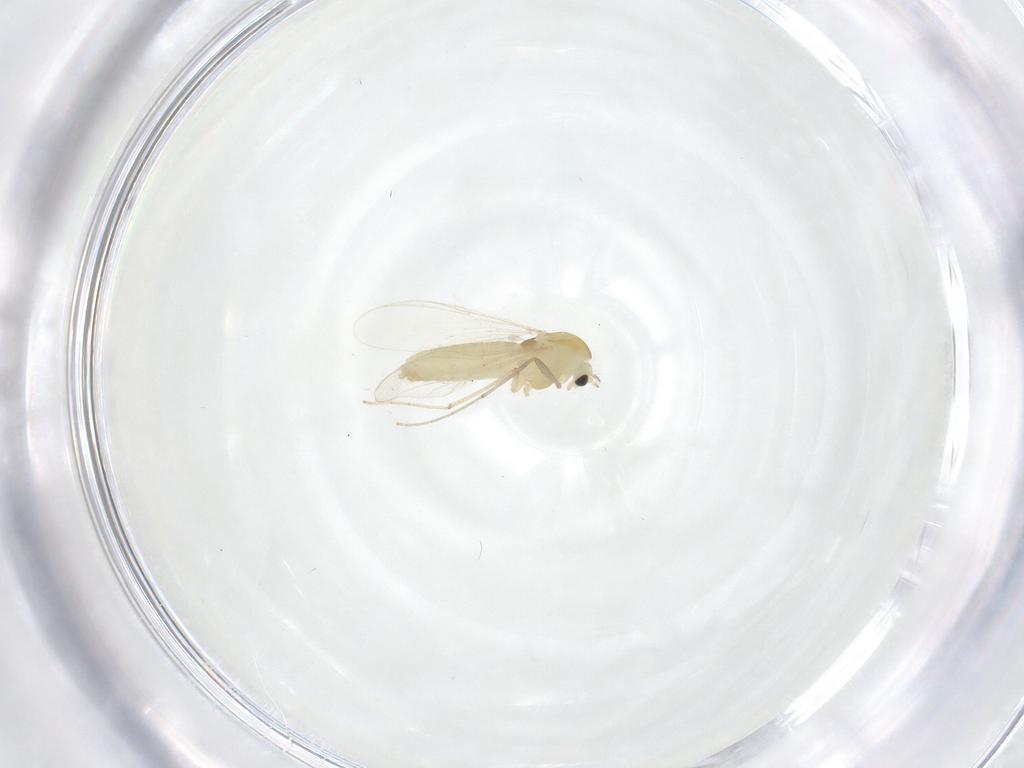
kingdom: Animalia
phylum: Arthropoda
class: Insecta
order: Diptera
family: Chironomidae
